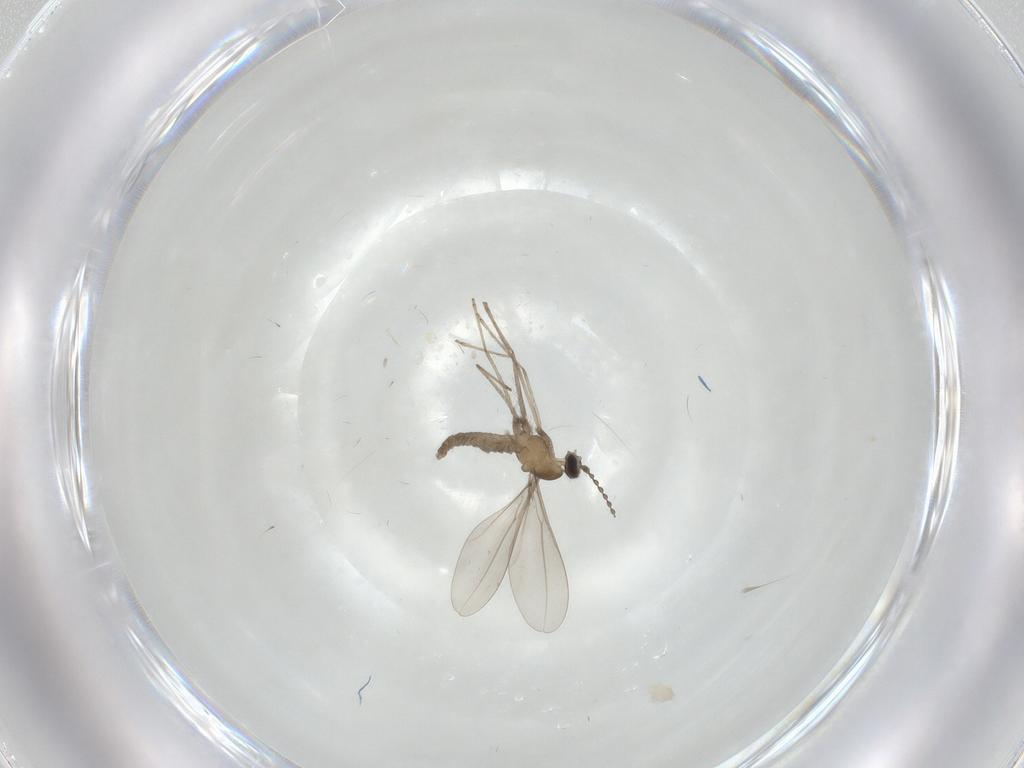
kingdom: Animalia
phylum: Arthropoda
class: Insecta
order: Diptera
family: Cecidomyiidae
